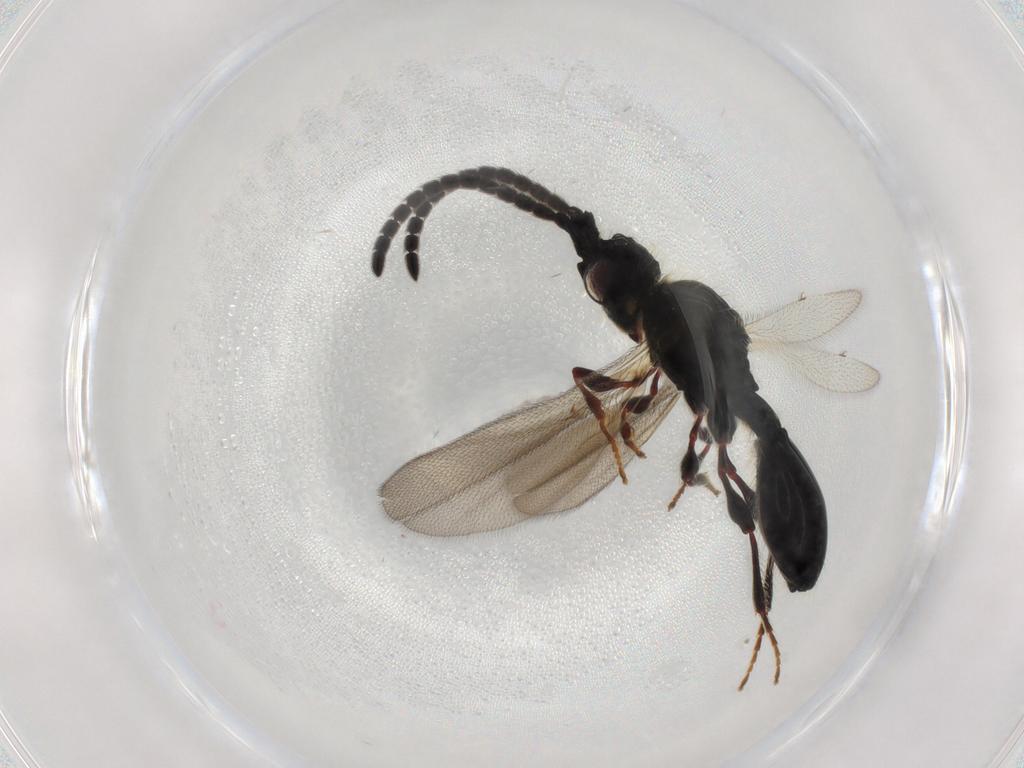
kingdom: Animalia
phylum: Arthropoda
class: Insecta
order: Hymenoptera
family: Diapriidae
